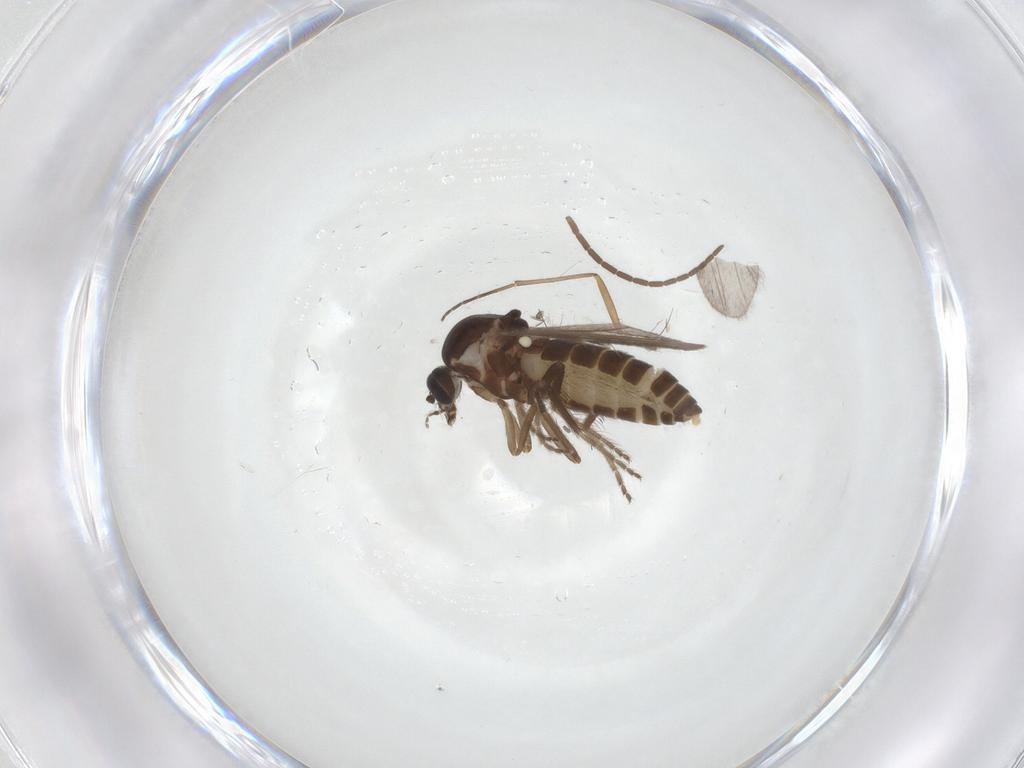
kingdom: Animalia
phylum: Arthropoda
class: Insecta
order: Diptera
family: Ceratopogonidae
